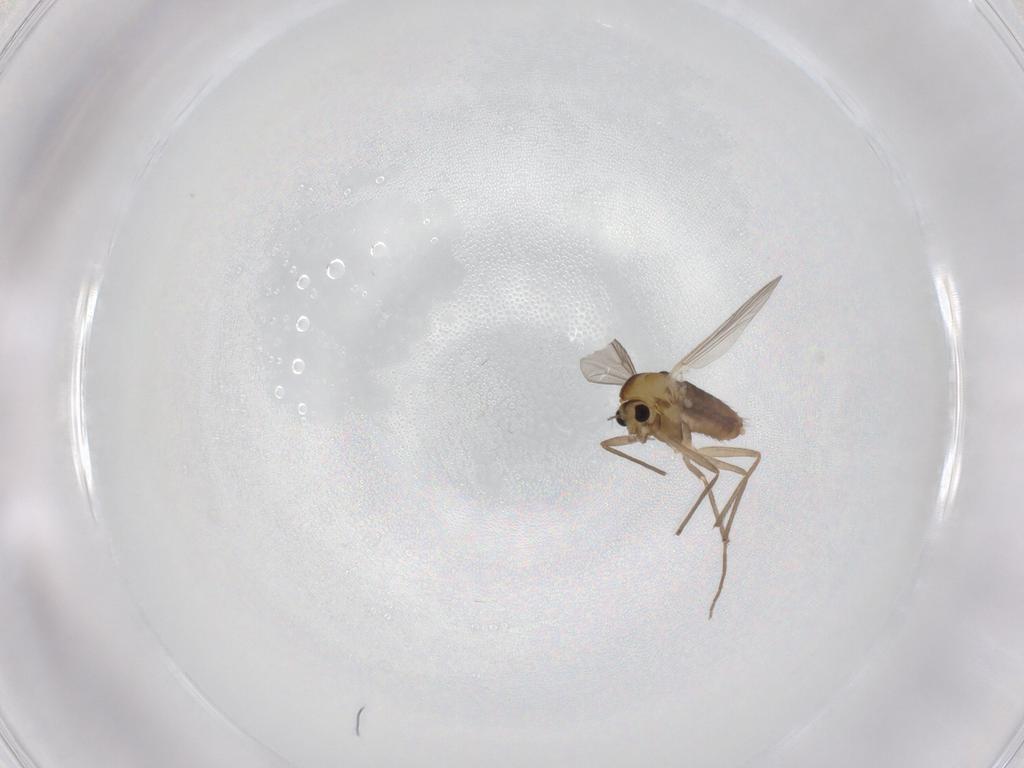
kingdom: Animalia
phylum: Arthropoda
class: Insecta
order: Diptera
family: Chironomidae
